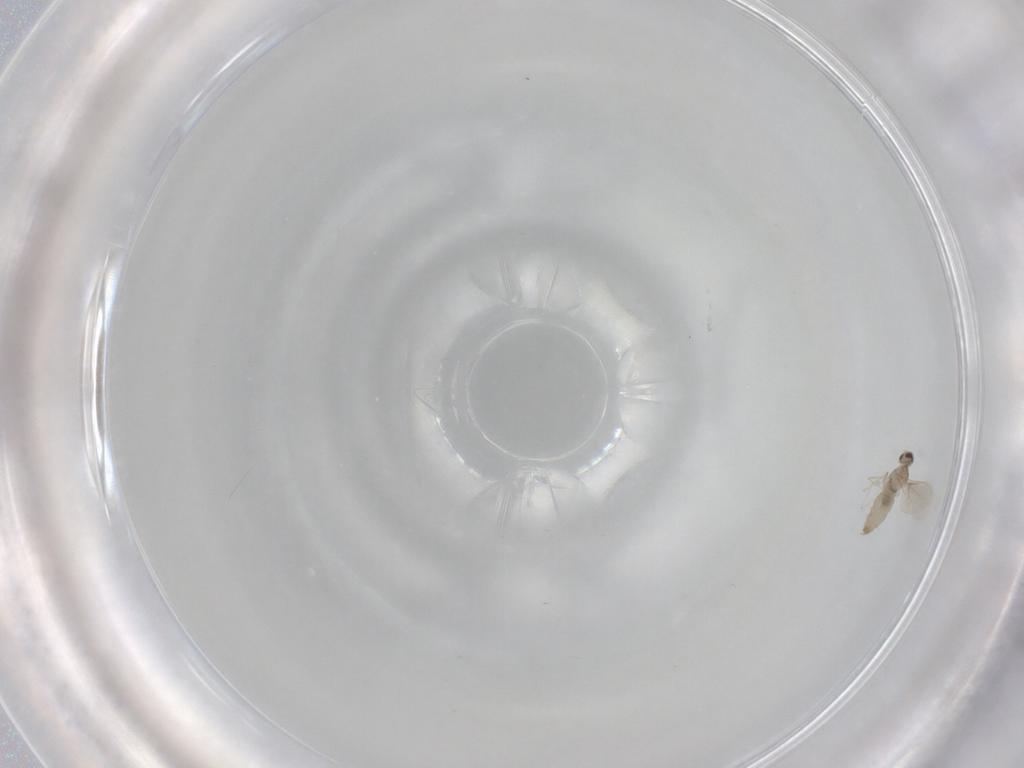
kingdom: Animalia
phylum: Arthropoda
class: Insecta
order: Diptera
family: Cecidomyiidae
